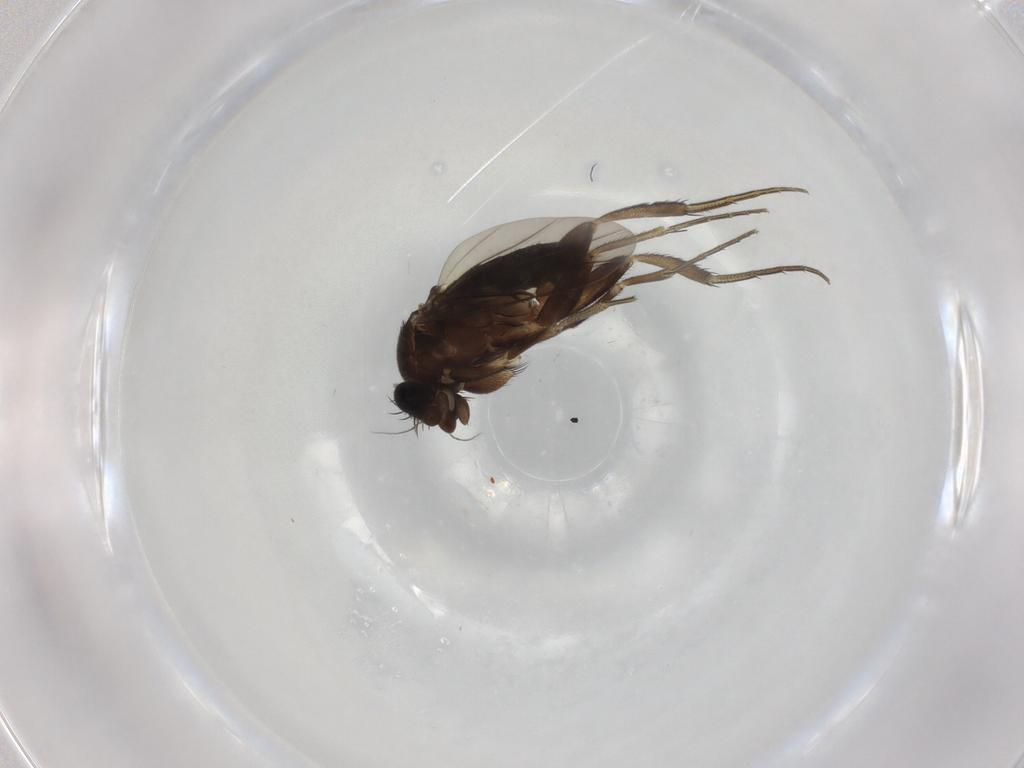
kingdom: Animalia
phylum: Arthropoda
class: Insecta
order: Diptera
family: Phoridae
